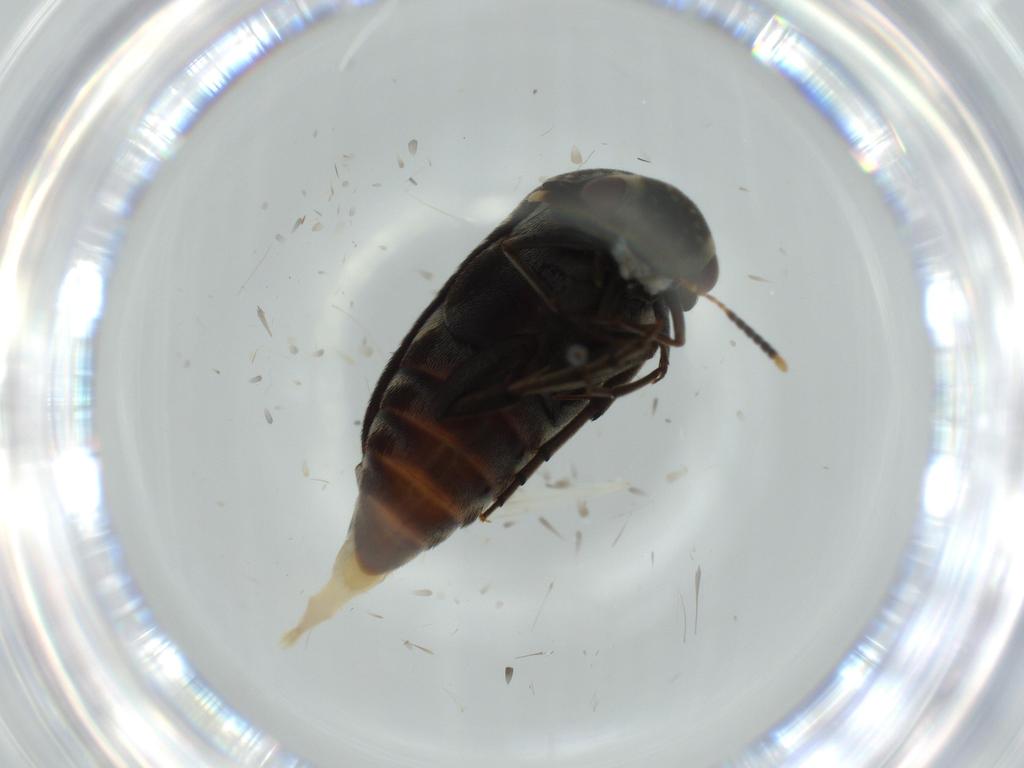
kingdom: Animalia
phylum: Arthropoda
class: Insecta
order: Coleoptera
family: Mordellidae
